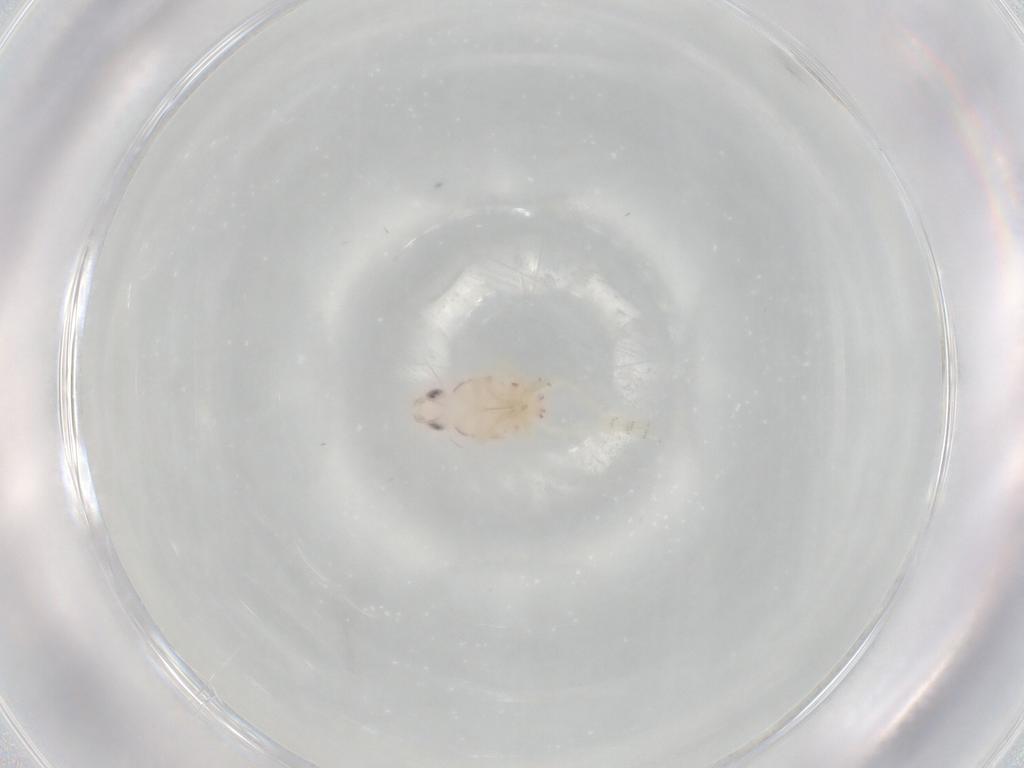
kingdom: Animalia
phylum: Arthropoda
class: Insecta
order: Hemiptera
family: Tropiduchidae
